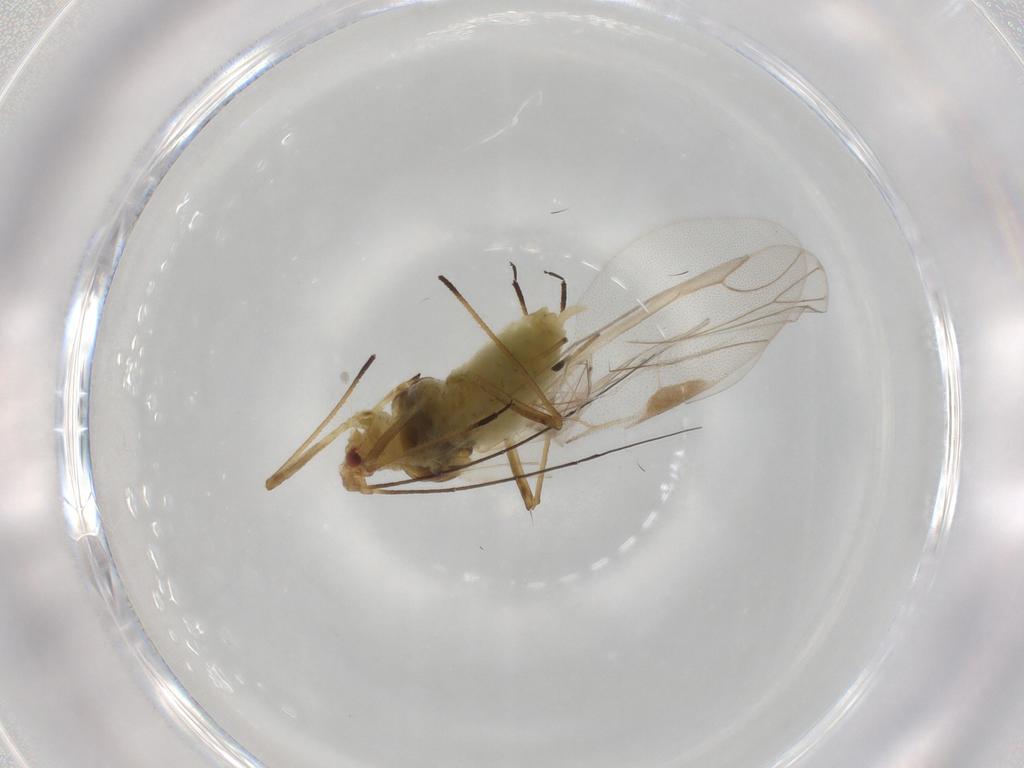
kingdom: Animalia
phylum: Arthropoda
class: Insecta
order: Hemiptera
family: Aphididae
